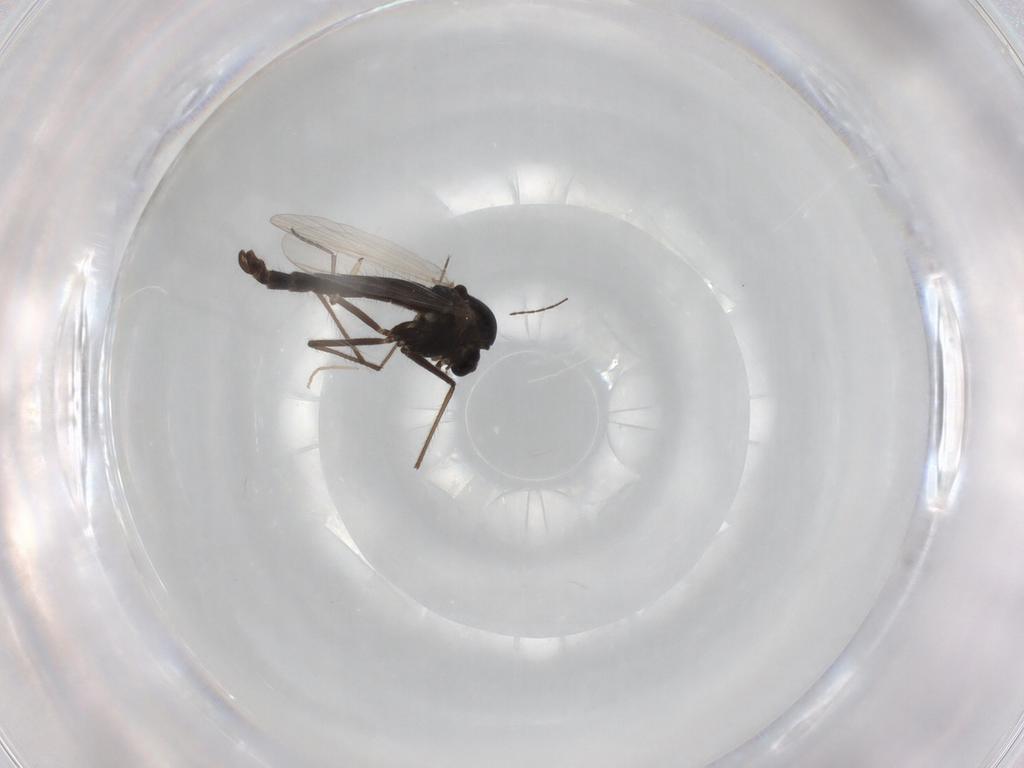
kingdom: Animalia
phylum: Arthropoda
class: Insecta
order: Diptera
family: Chironomidae
